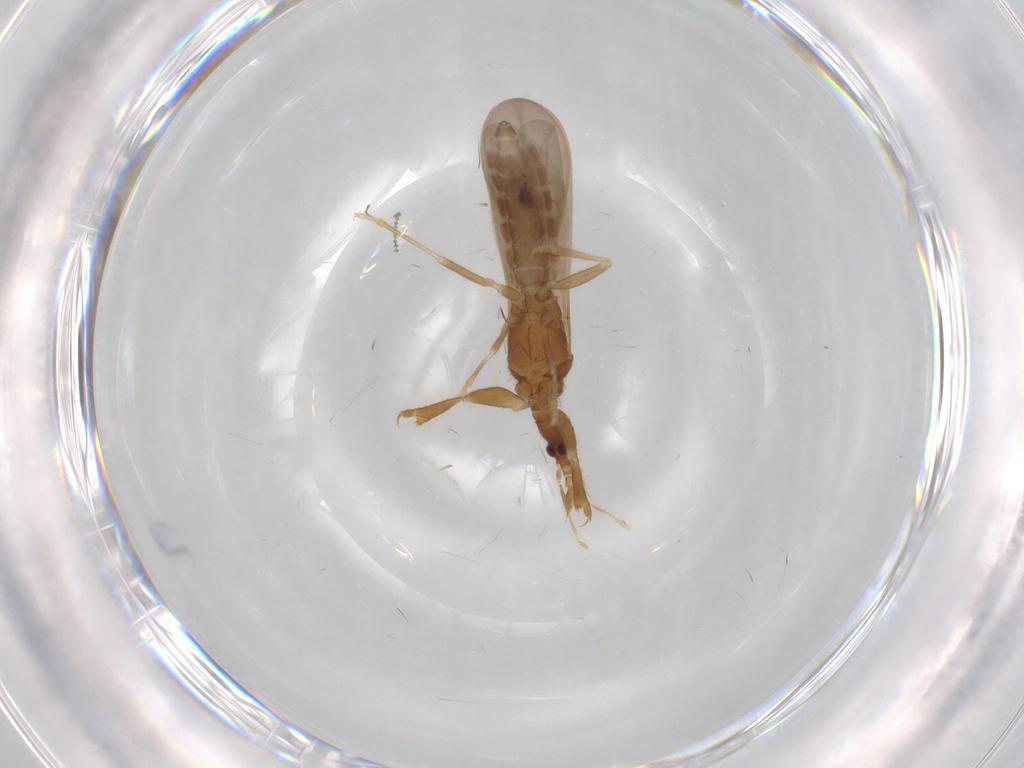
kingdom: Animalia
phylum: Arthropoda
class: Insecta
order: Hemiptera
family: Enicocephalidae
